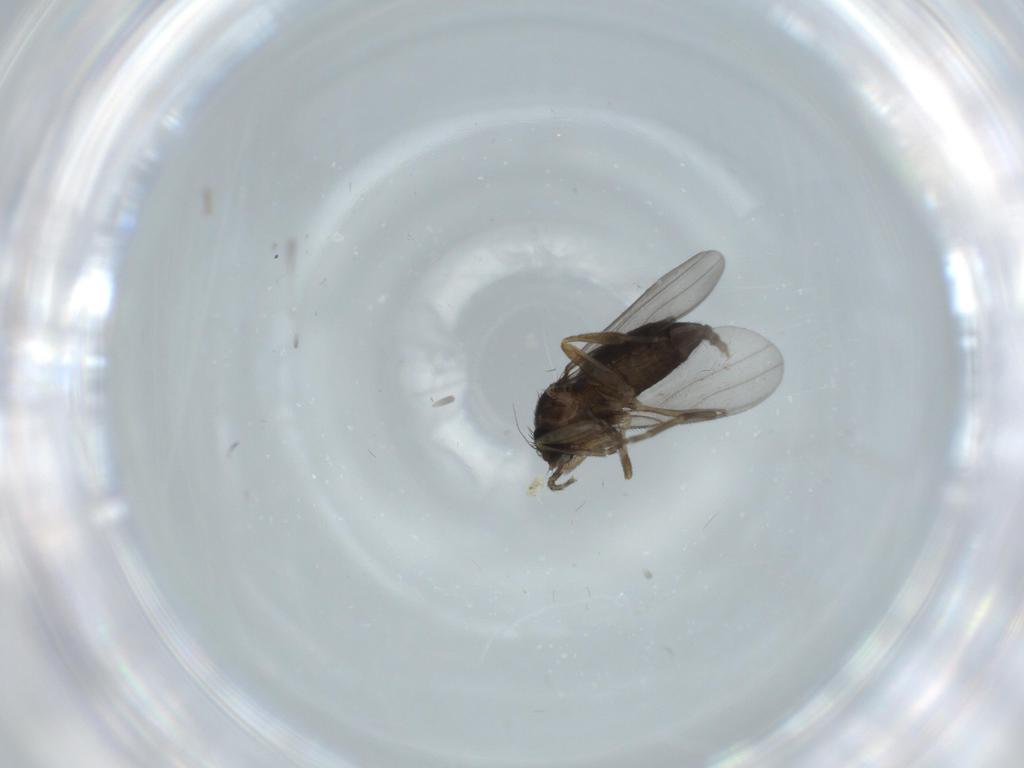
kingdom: Animalia
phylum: Arthropoda
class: Insecta
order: Diptera
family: Phoridae
